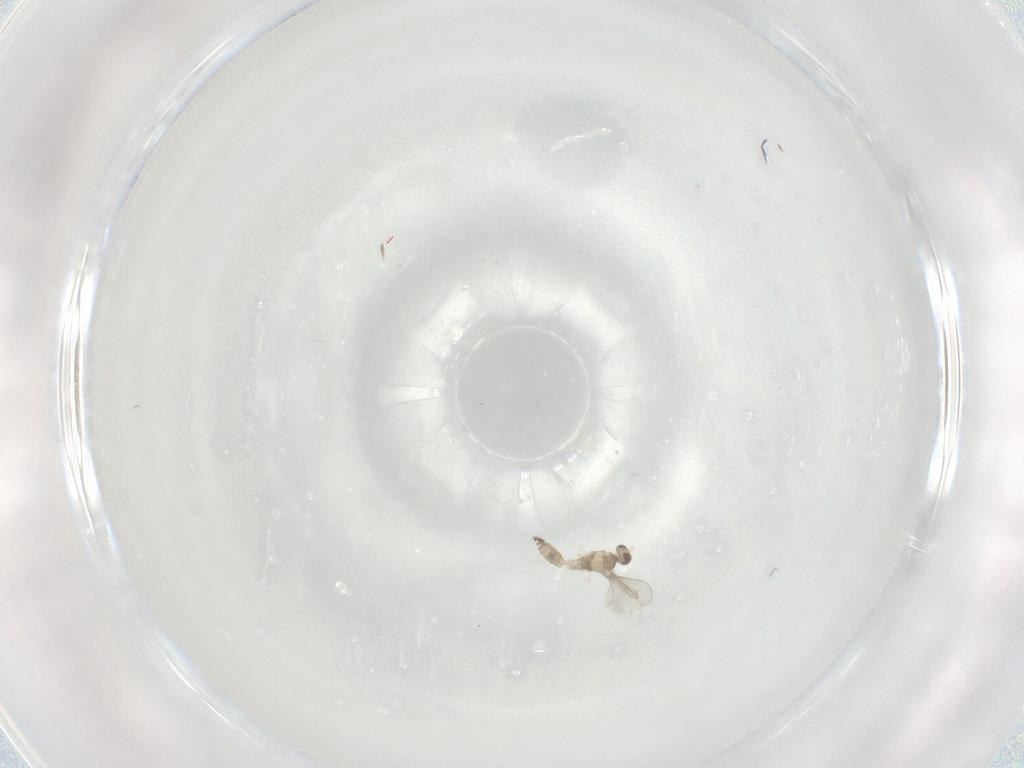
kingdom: Animalia
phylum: Arthropoda
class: Insecta
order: Diptera
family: Cecidomyiidae
